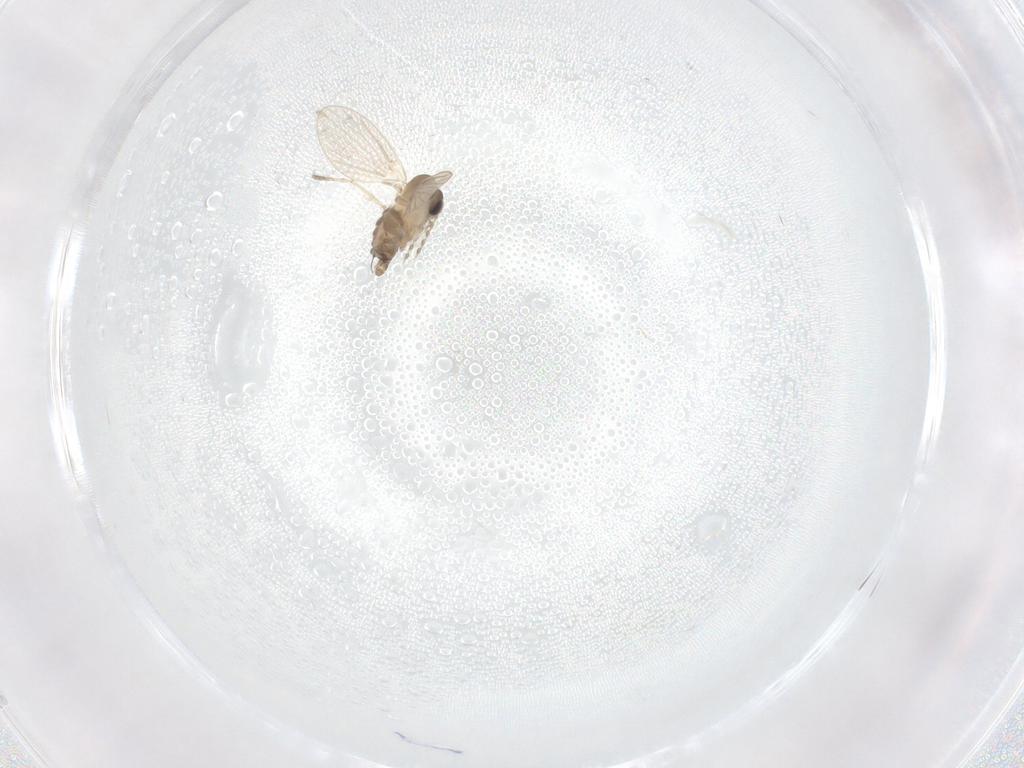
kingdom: Animalia
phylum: Arthropoda
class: Insecta
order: Diptera
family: Psychodidae
